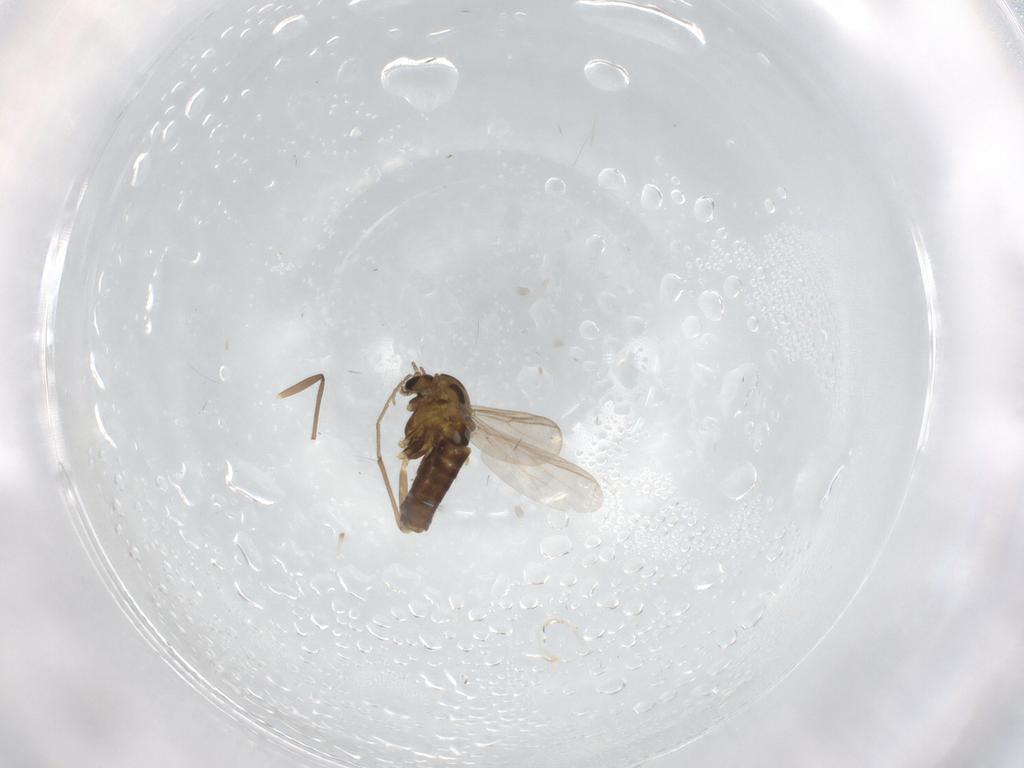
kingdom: Animalia
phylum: Arthropoda
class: Insecta
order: Diptera
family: Chironomidae
